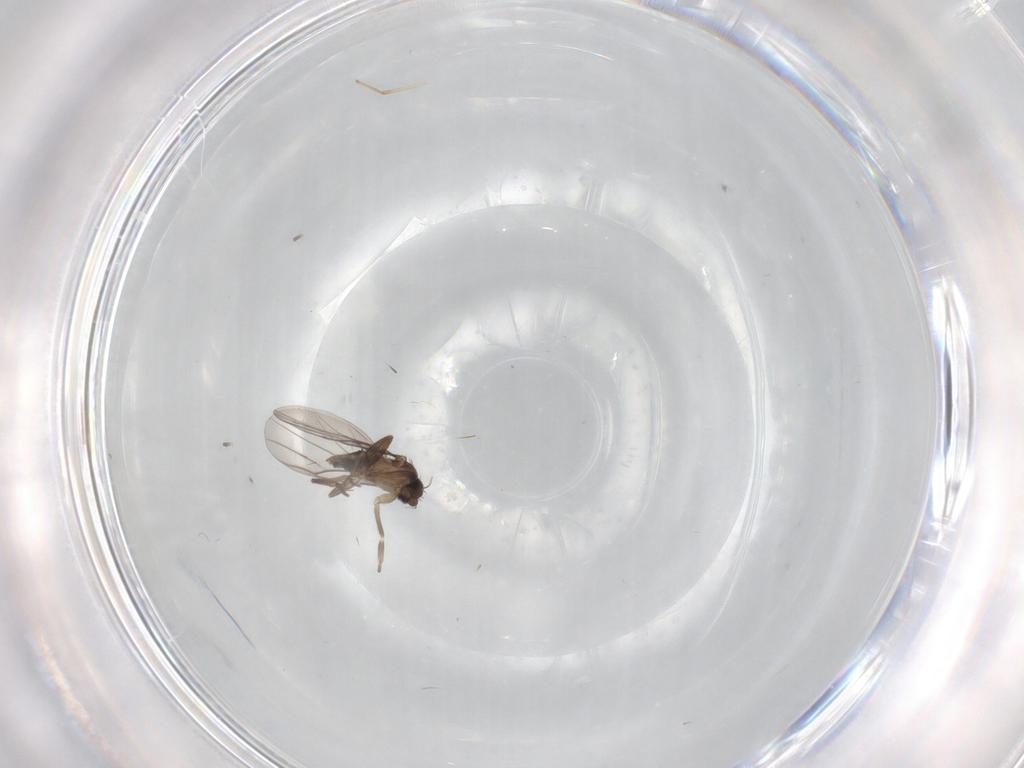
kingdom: Animalia
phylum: Arthropoda
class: Insecta
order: Diptera
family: Chironomidae
